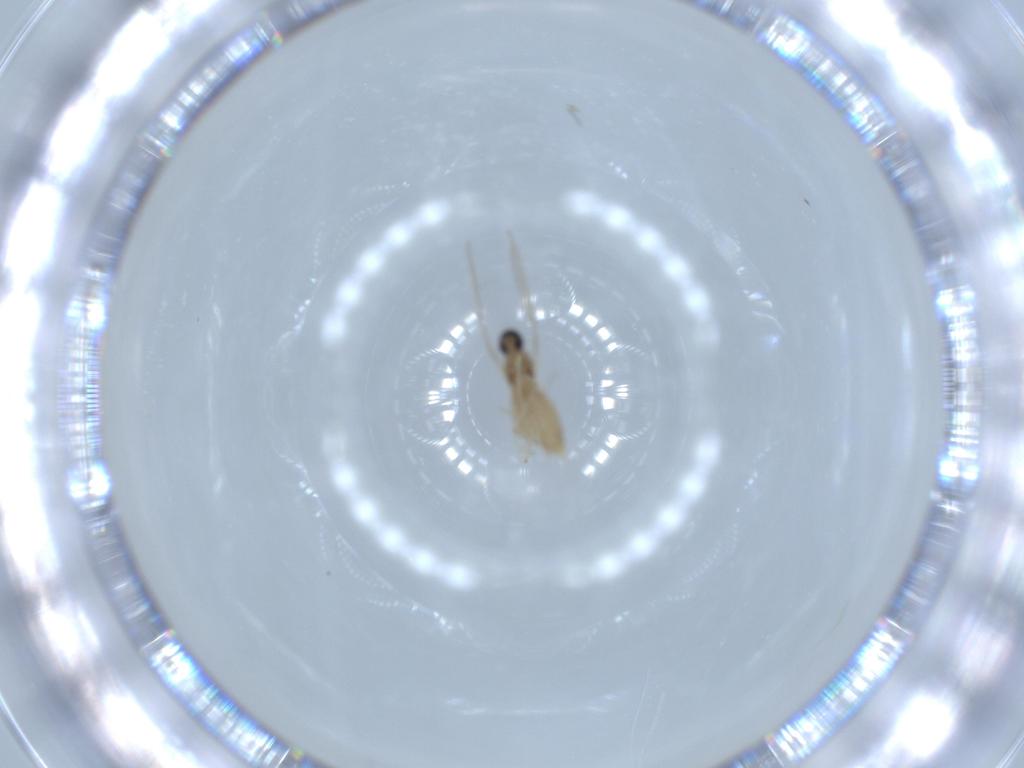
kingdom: Animalia
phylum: Arthropoda
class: Insecta
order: Diptera
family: Cecidomyiidae
